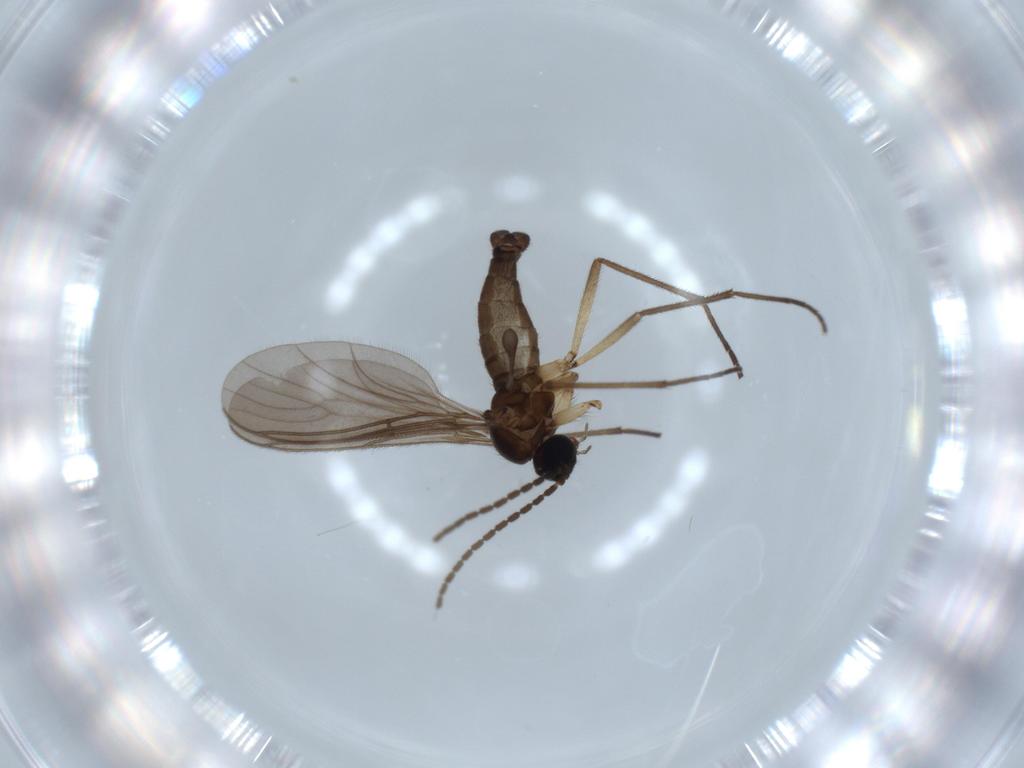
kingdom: Animalia
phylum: Arthropoda
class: Insecta
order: Diptera
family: Sciaridae
